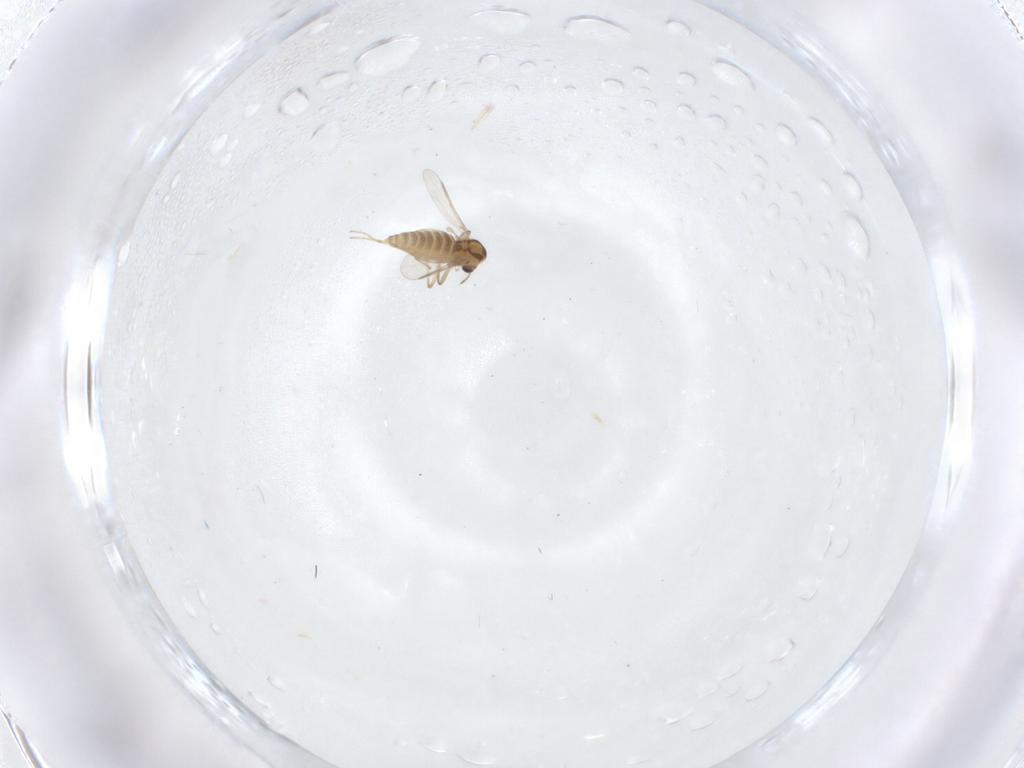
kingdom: Animalia
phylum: Arthropoda
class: Insecta
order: Diptera
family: Chironomidae
